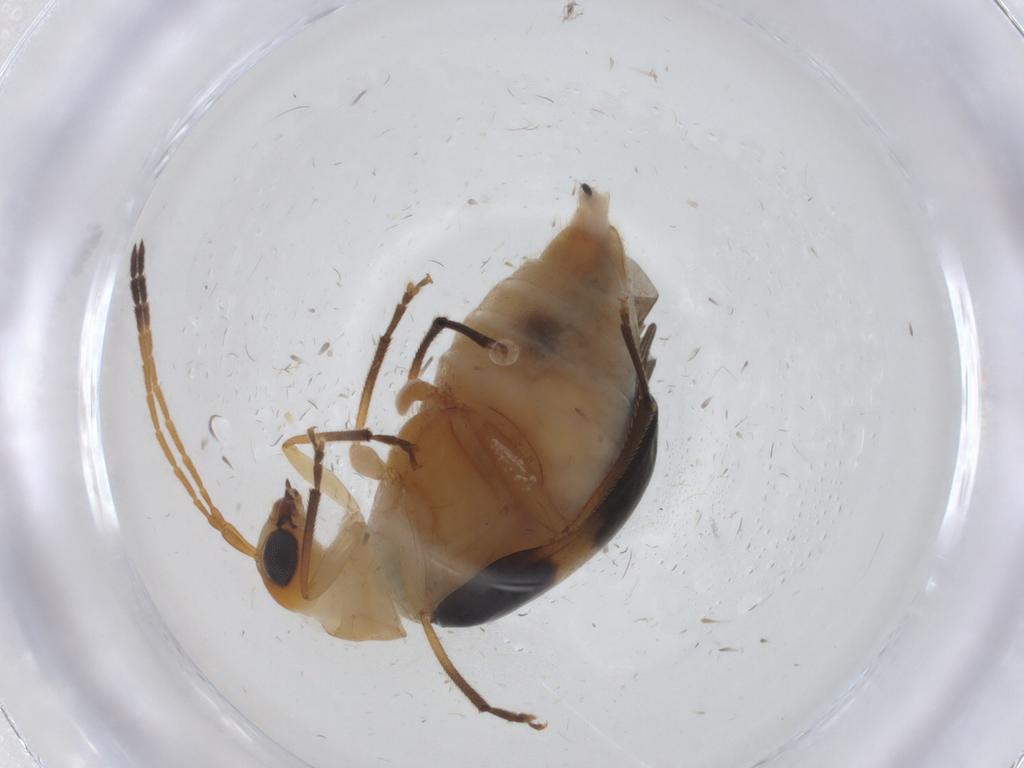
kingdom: Animalia
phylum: Arthropoda
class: Insecta
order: Coleoptera
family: Chrysomelidae
